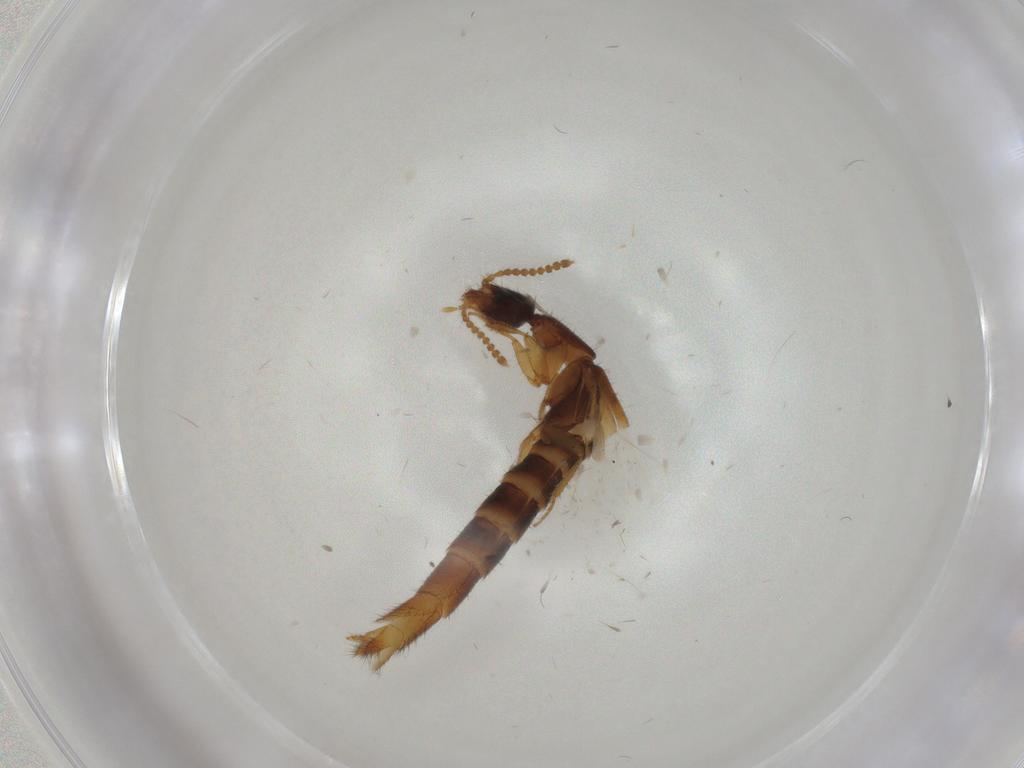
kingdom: Animalia
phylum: Arthropoda
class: Insecta
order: Coleoptera
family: Staphylinidae
